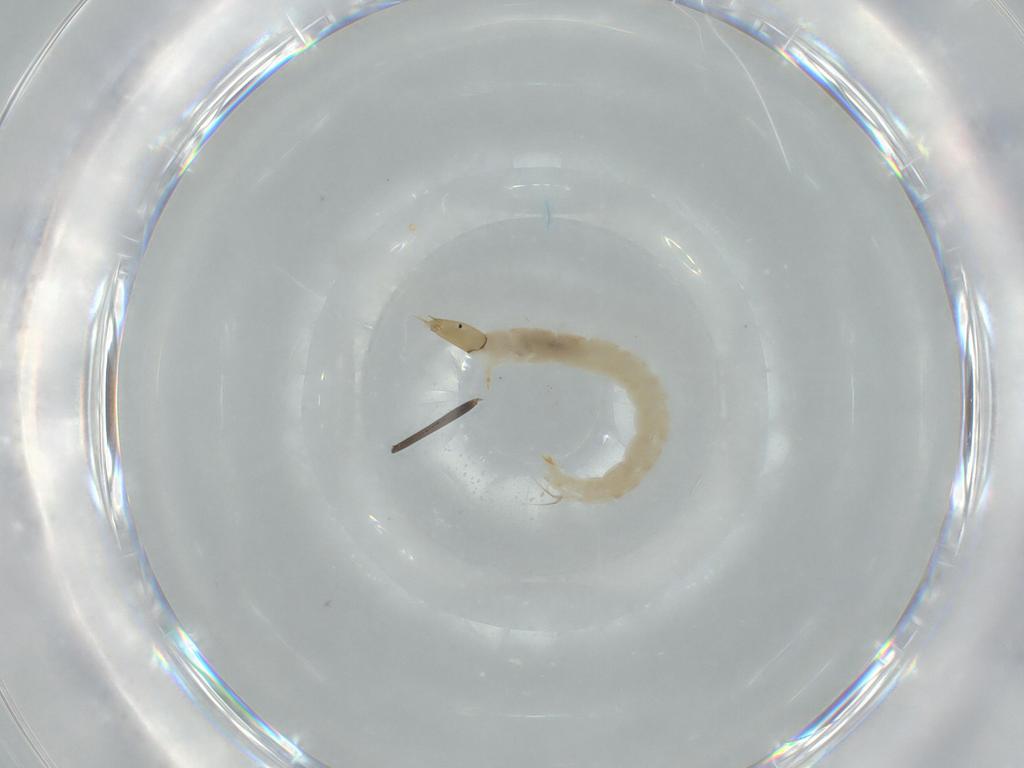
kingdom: Animalia
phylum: Arthropoda
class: Insecta
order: Diptera
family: Chironomidae
